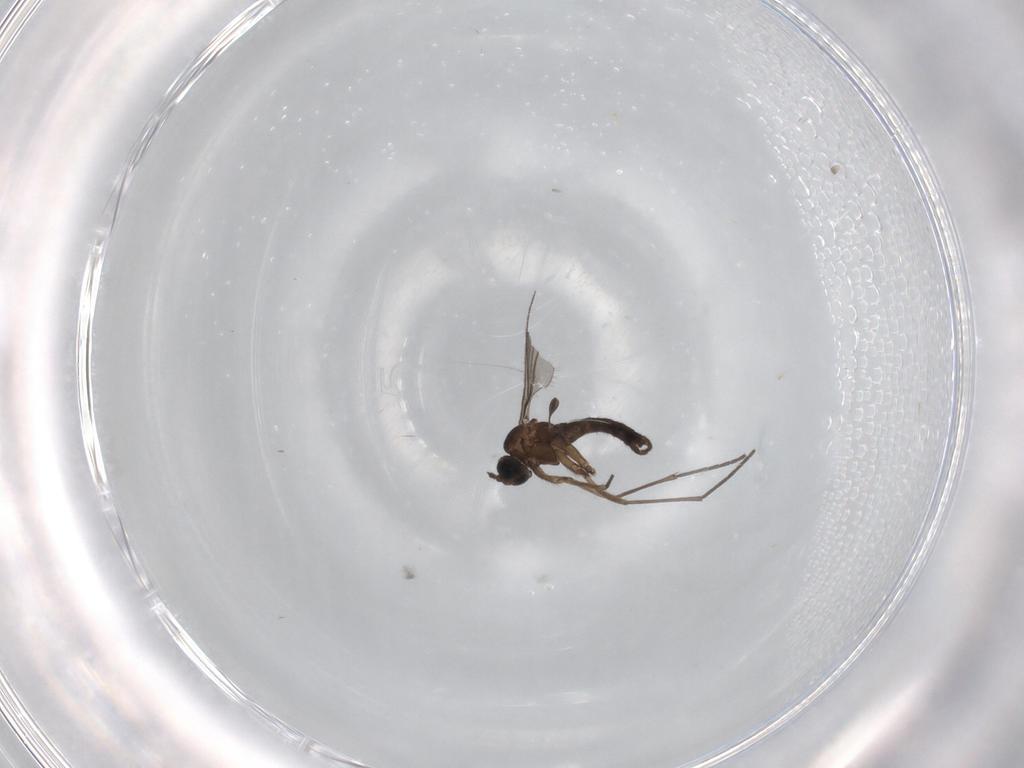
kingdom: Animalia
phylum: Arthropoda
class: Insecta
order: Diptera
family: Sciaridae
